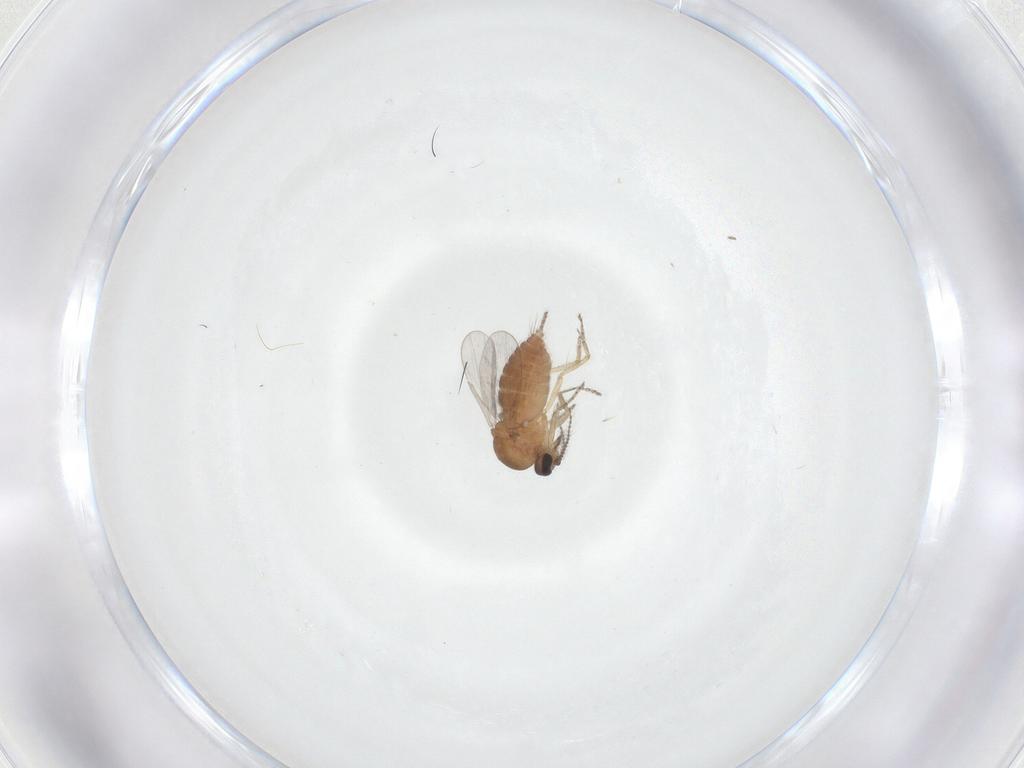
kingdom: Animalia
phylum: Arthropoda
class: Insecta
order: Diptera
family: Ceratopogonidae
